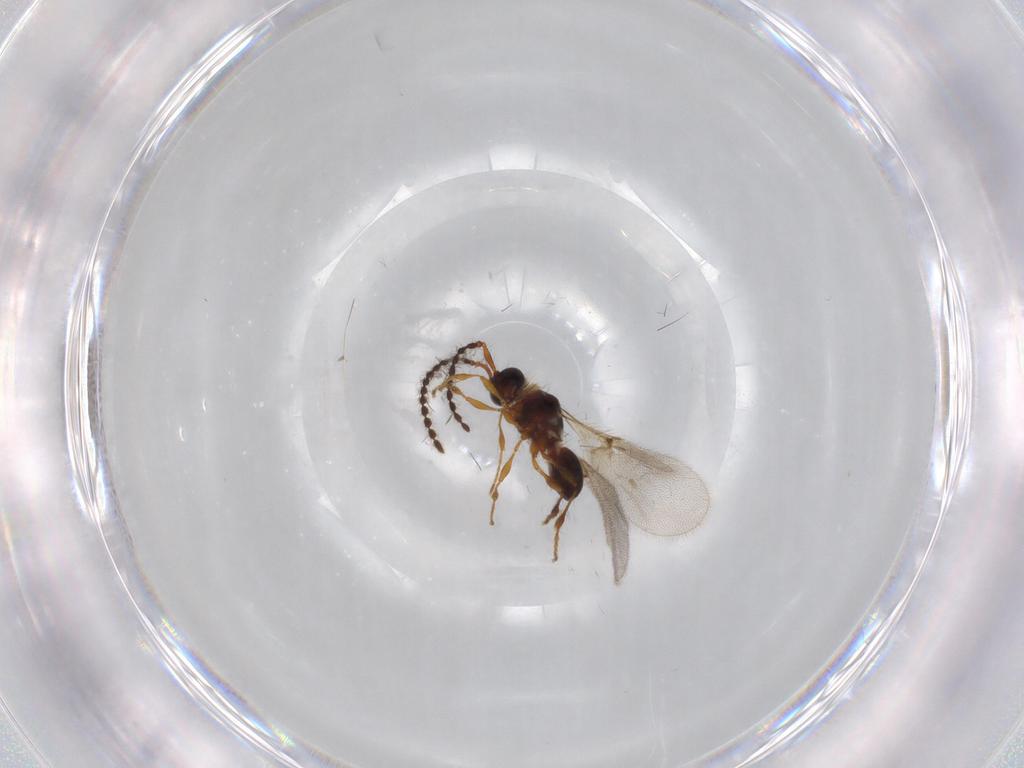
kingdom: Animalia
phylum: Arthropoda
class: Insecta
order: Hymenoptera
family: Diapriidae
